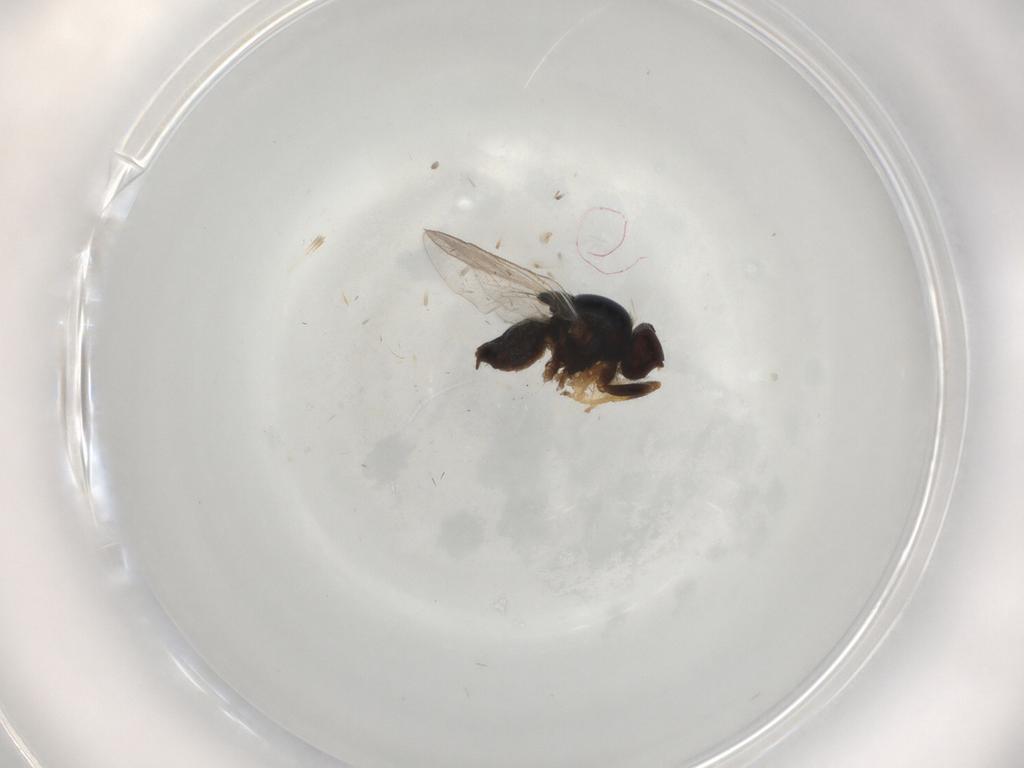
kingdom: Animalia
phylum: Arthropoda
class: Insecta
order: Diptera
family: Chloropidae
